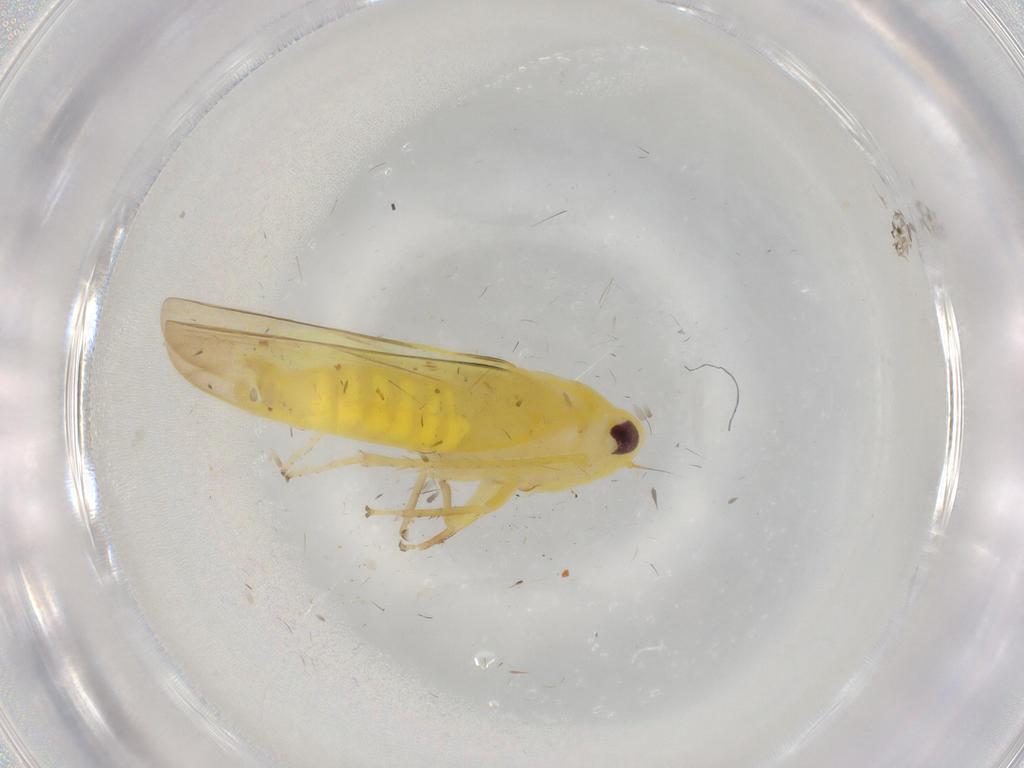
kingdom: Animalia
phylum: Arthropoda
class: Insecta
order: Hemiptera
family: Cicadellidae
